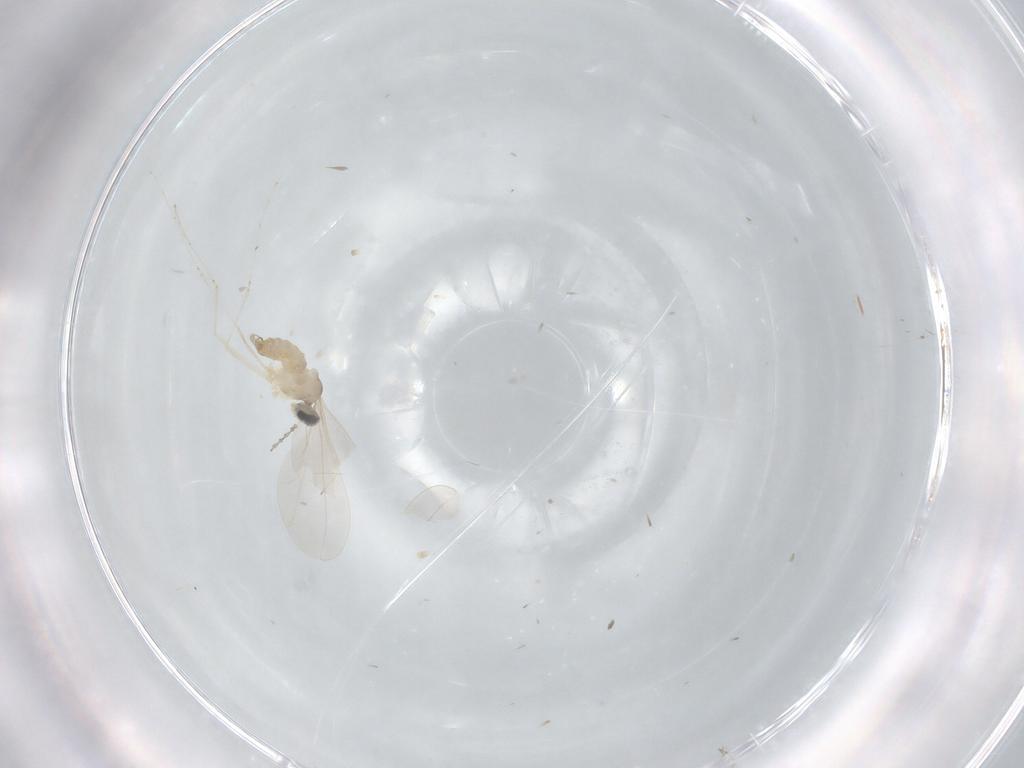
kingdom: Animalia
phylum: Arthropoda
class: Insecta
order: Diptera
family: Cecidomyiidae
